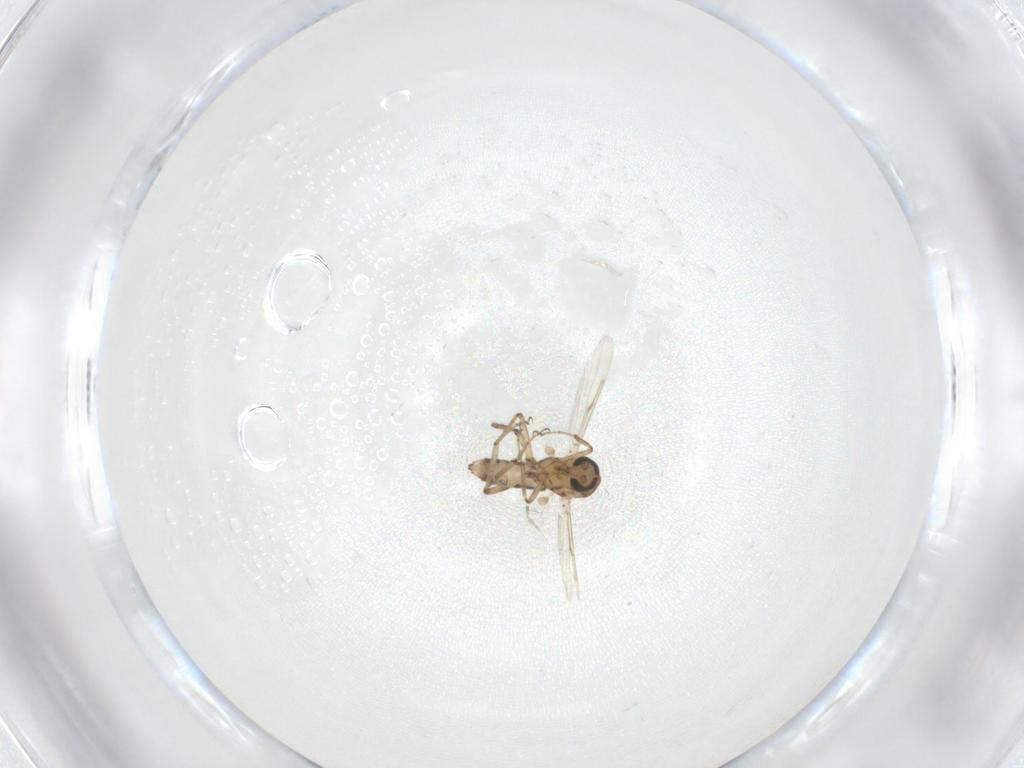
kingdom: Animalia
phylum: Arthropoda
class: Insecta
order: Diptera
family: Ceratopogonidae
